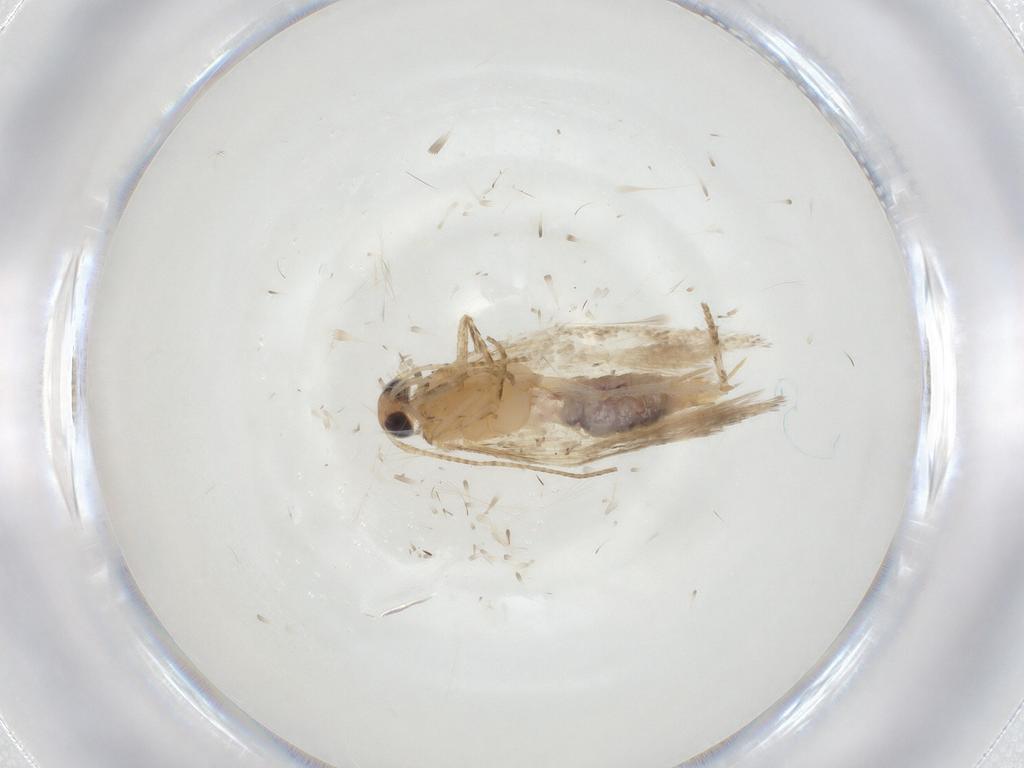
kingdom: Animalia
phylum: Arthropoda
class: Insecta
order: Lepidoptera
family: Gelechiidae
